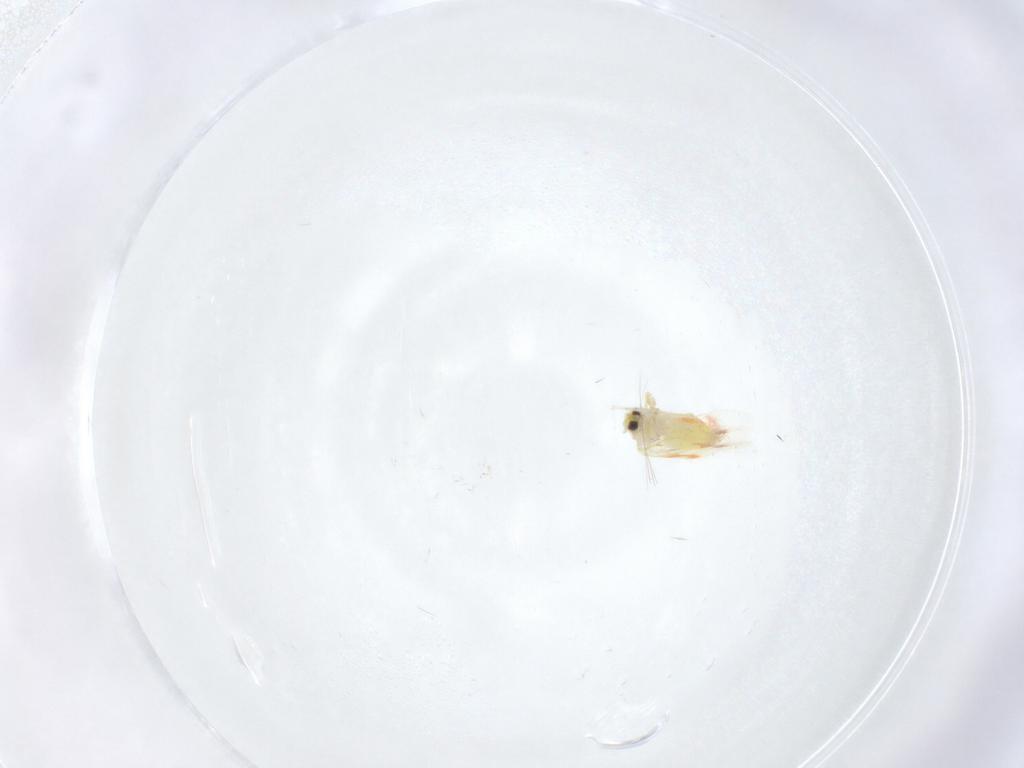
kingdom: Animalia
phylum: Arthropoda
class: Insecta
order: Hemiptera
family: Aleyrodidae
